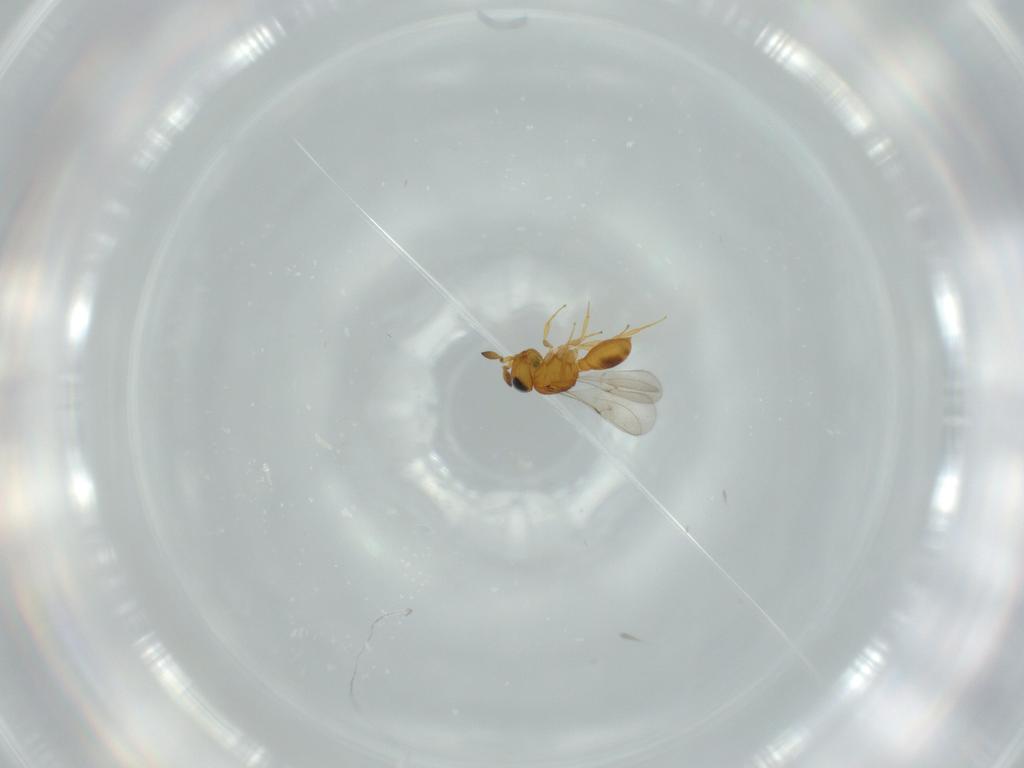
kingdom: Animalia
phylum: Arthropoda
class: Insecta
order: Hymenoptera
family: Scelionidae
